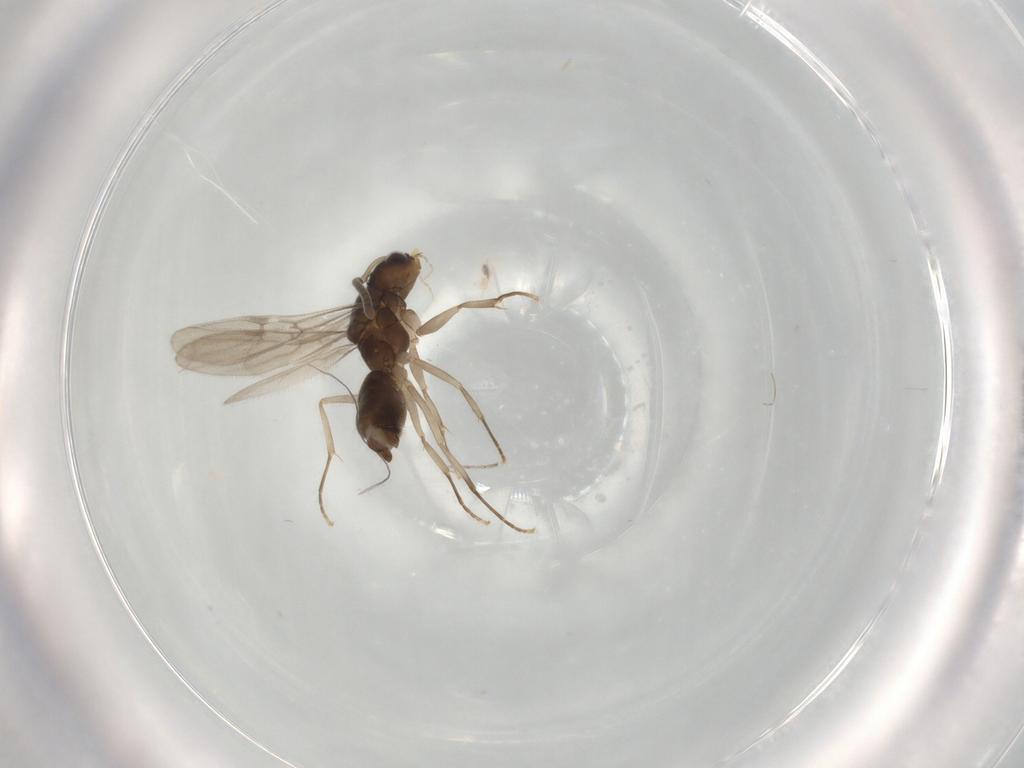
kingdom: Animalia
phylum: Arthropoda
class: Insecta
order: Hymenoptera
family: Formicidae
